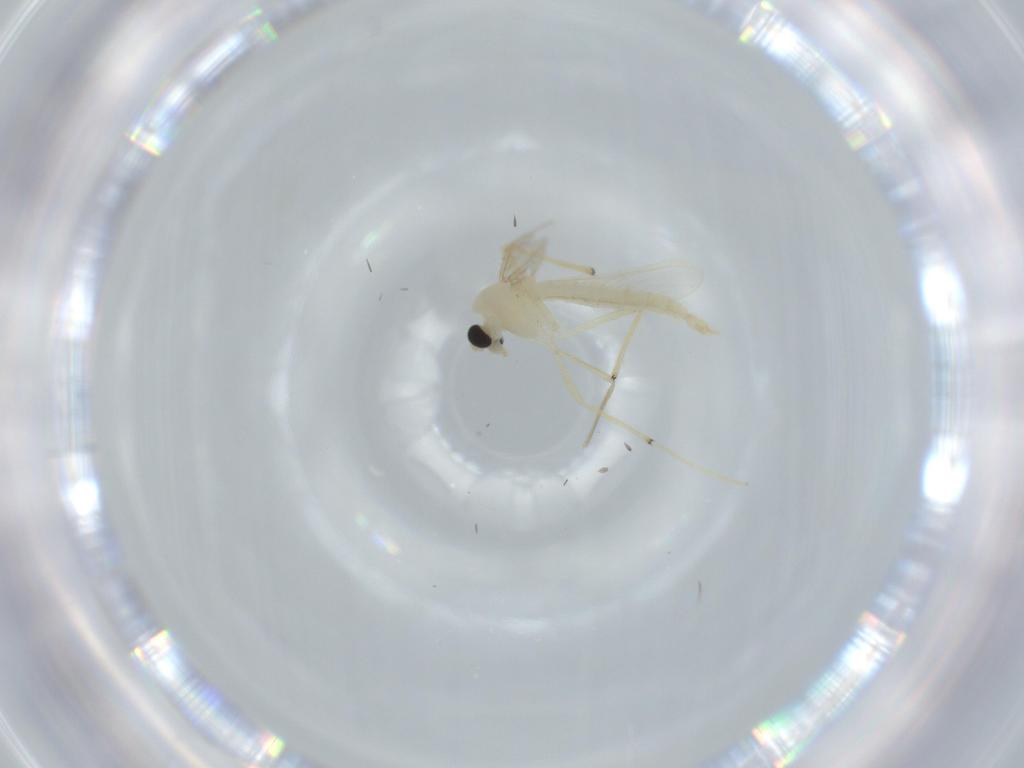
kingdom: Animalia
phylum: Arthropoda
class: Insecta
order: Diptera
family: Chironomidae
